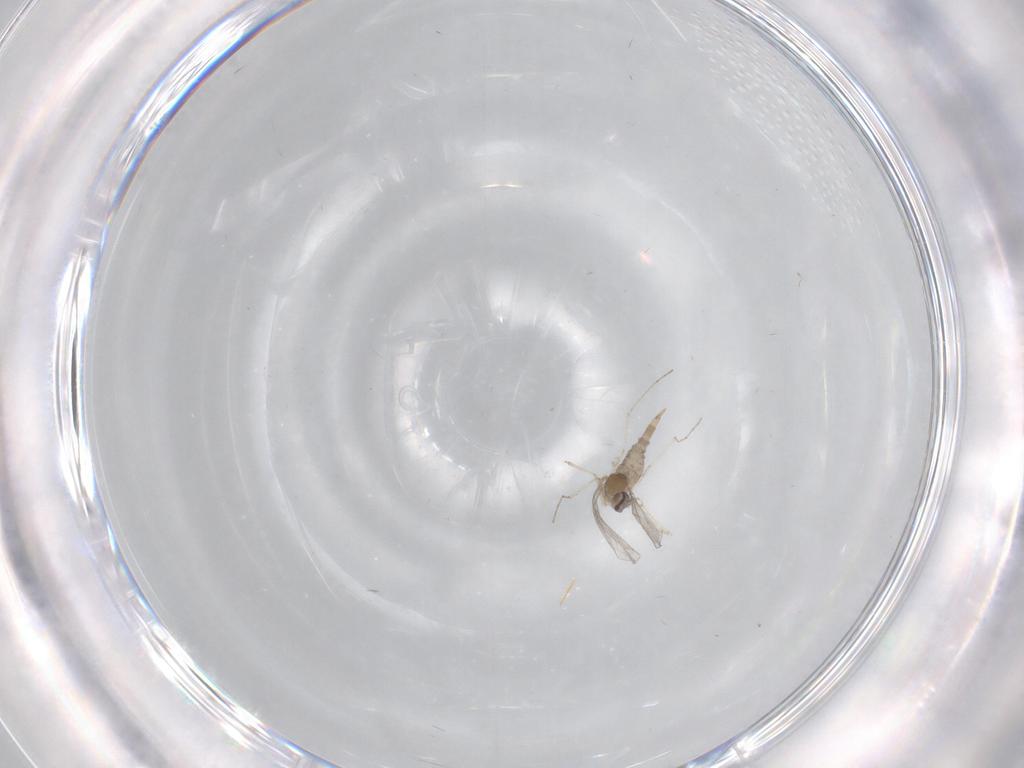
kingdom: Animalia
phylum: Arthropoda
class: Insecta
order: Diptera
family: Cecidomyiidae
